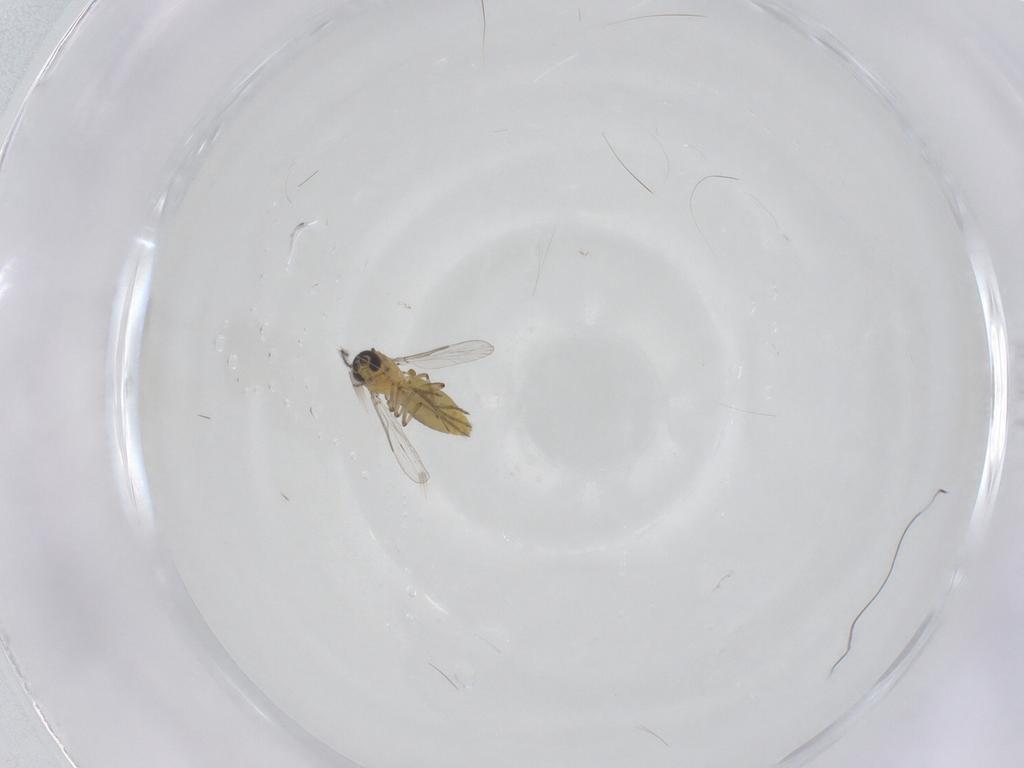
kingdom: Animalia
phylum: Arthropoda
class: Insecta
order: Diptera
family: Ceratopogonidae
